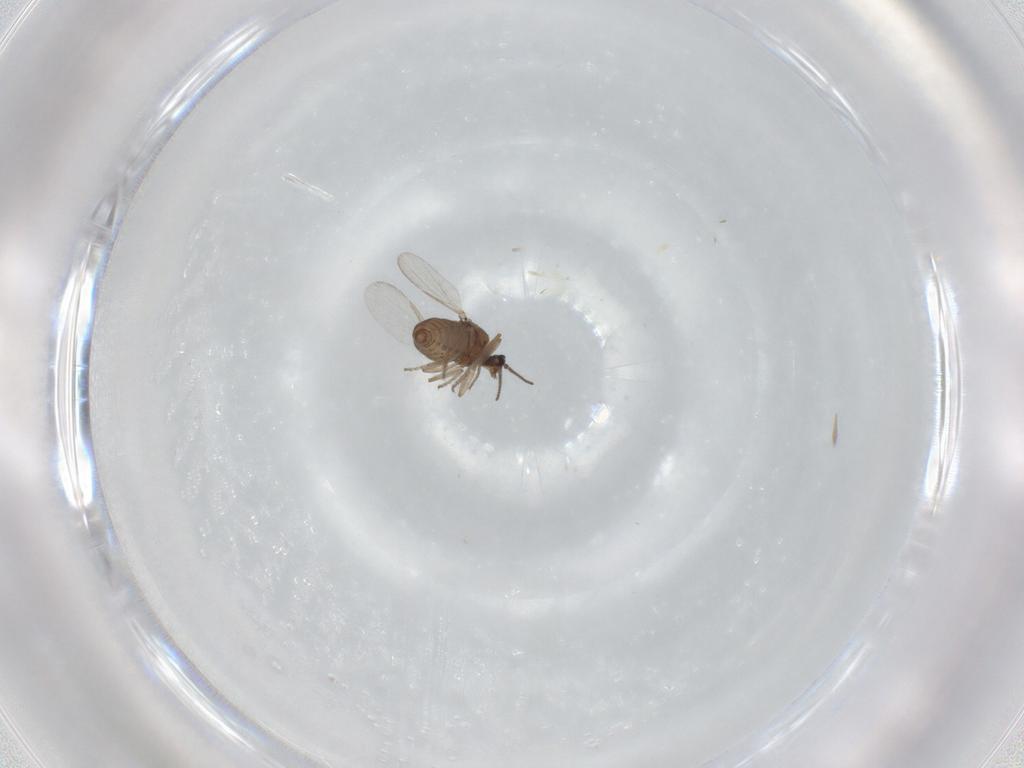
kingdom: Animalia
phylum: Arthropoda
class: Insecta
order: Diptera
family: Ceratopogonidae
